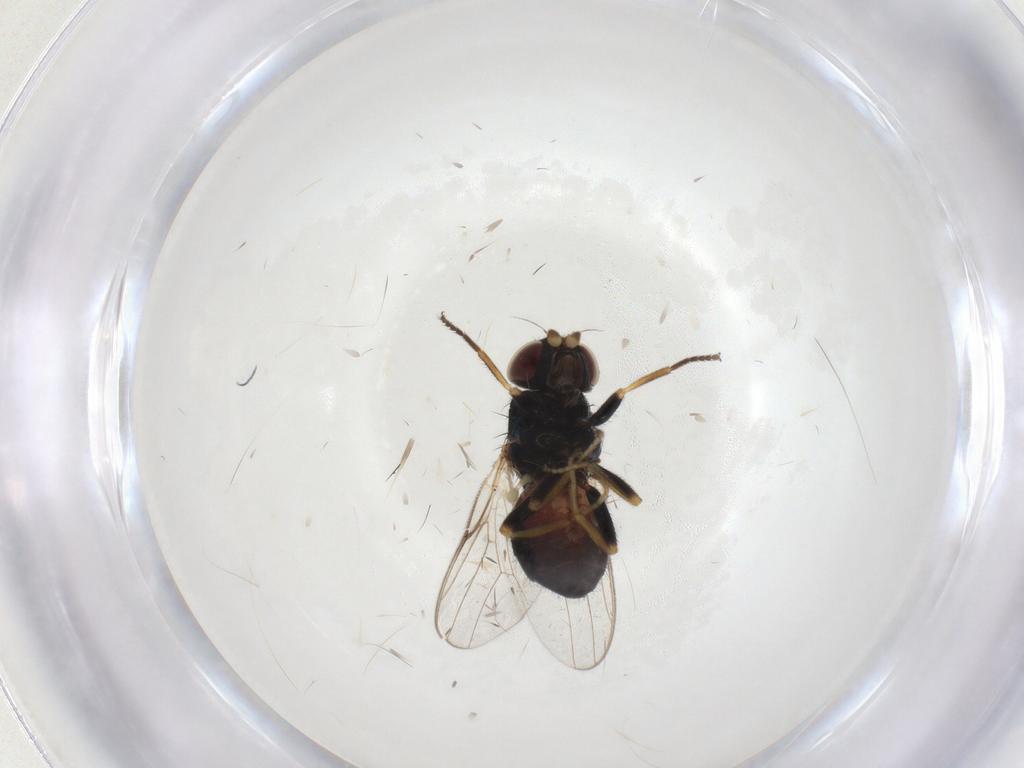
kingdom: Animalia
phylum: Arthropoda
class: Insecta
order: Diptera
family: Chloropidae
